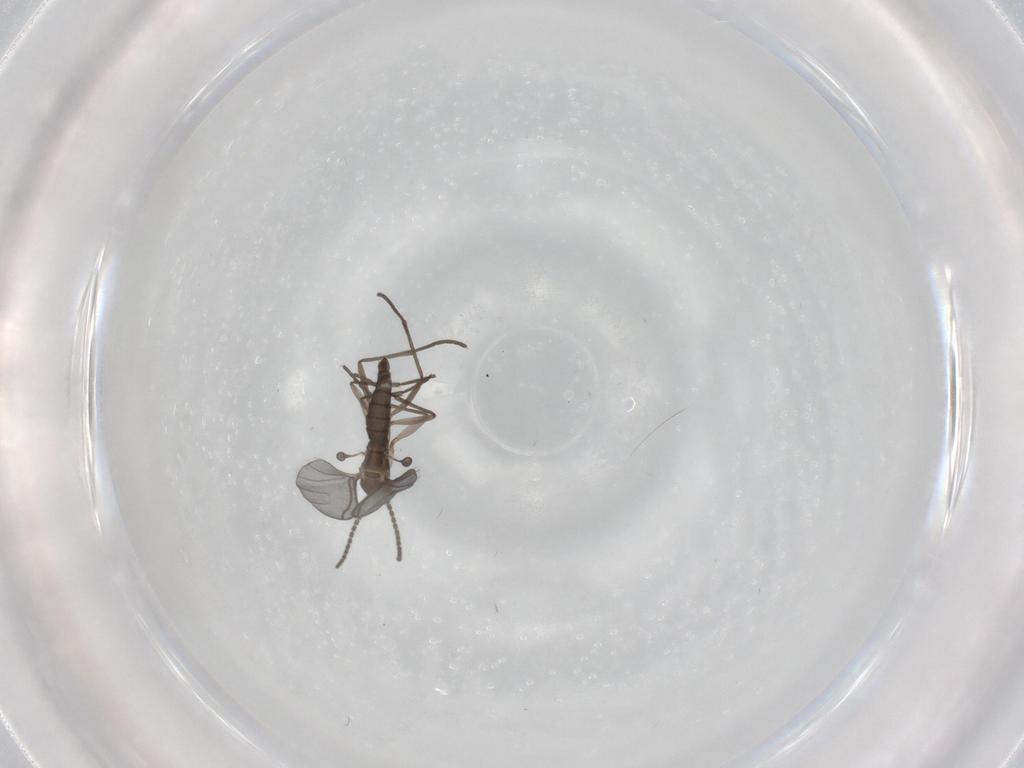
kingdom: Animalia
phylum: Arthropoda
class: Insecta
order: Diptera
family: Sciaridae
